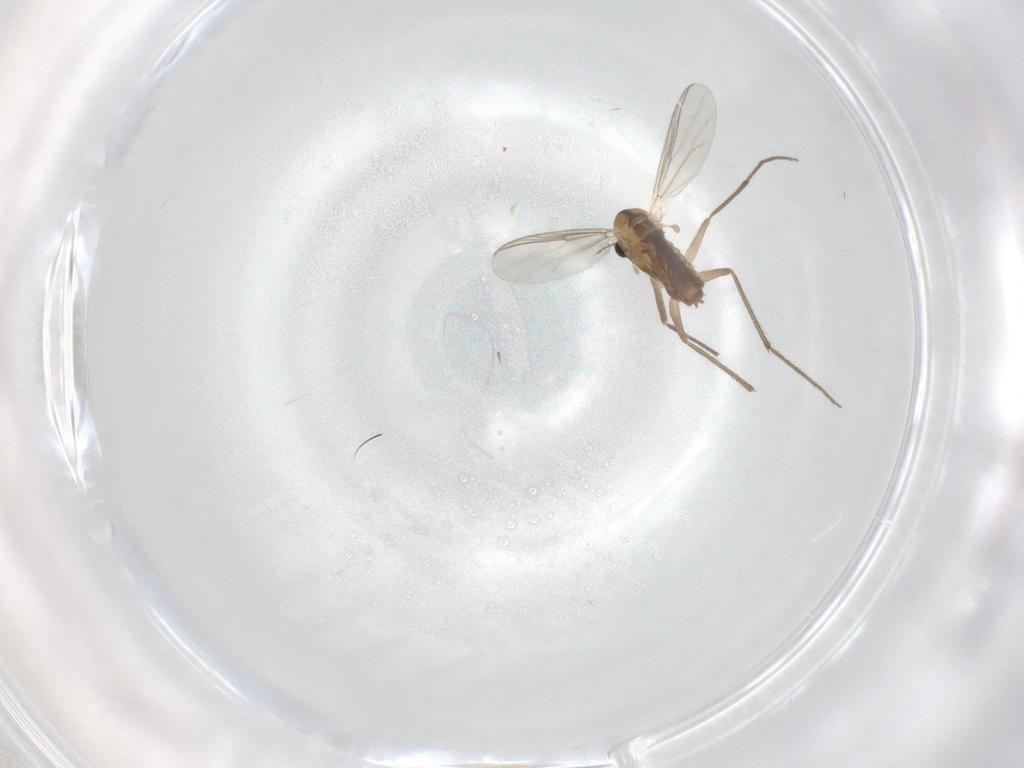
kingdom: Animalia
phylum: Arthropoda
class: Insecta
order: Diptera
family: Chironomidae
